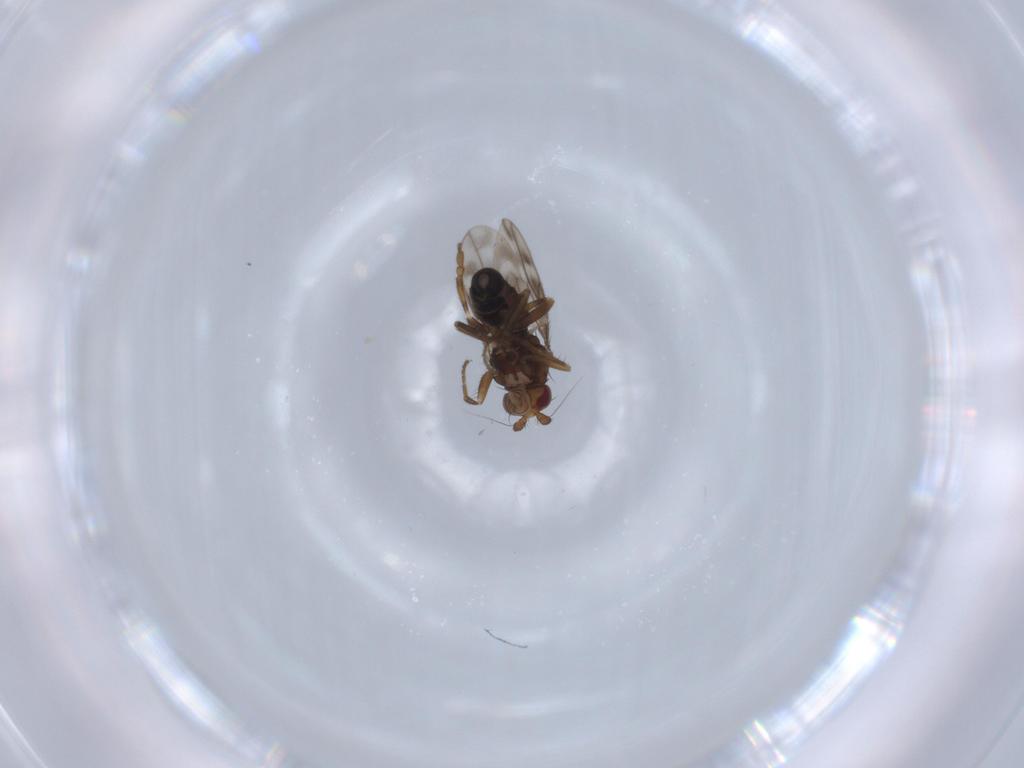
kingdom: Animalia
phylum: Arthropoda
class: Insecta
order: Diptera
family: Sphaeroceridae
